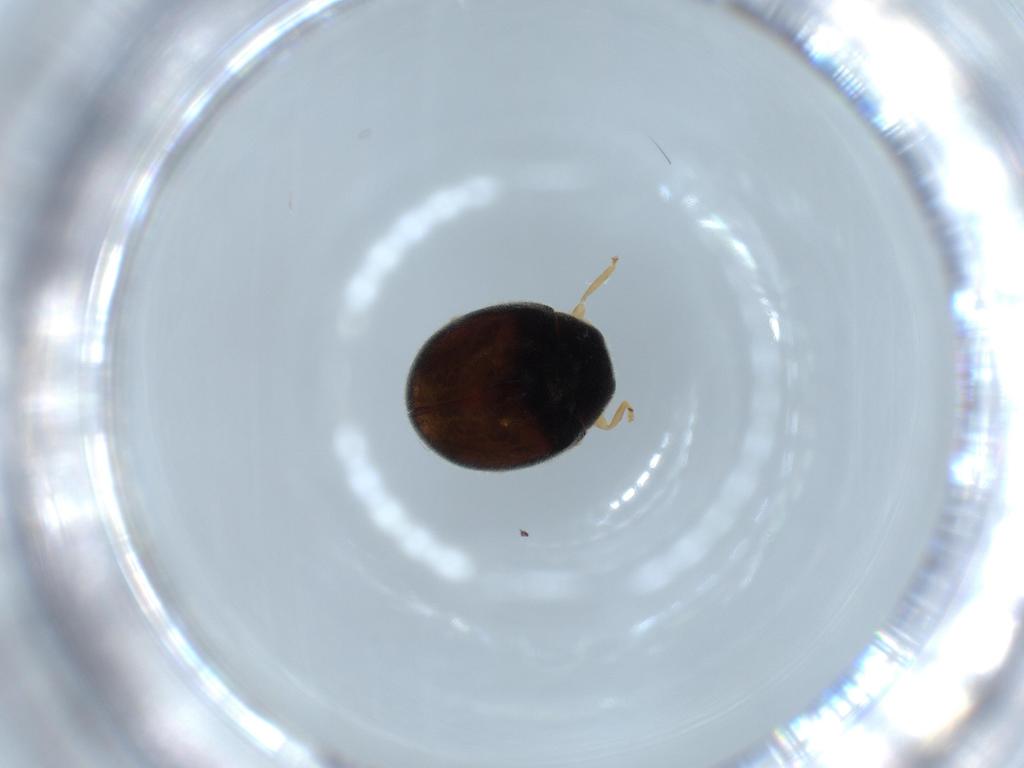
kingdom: Animalia
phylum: Arthropoda
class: Insecta
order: Coleoptera
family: Coccinellidae
